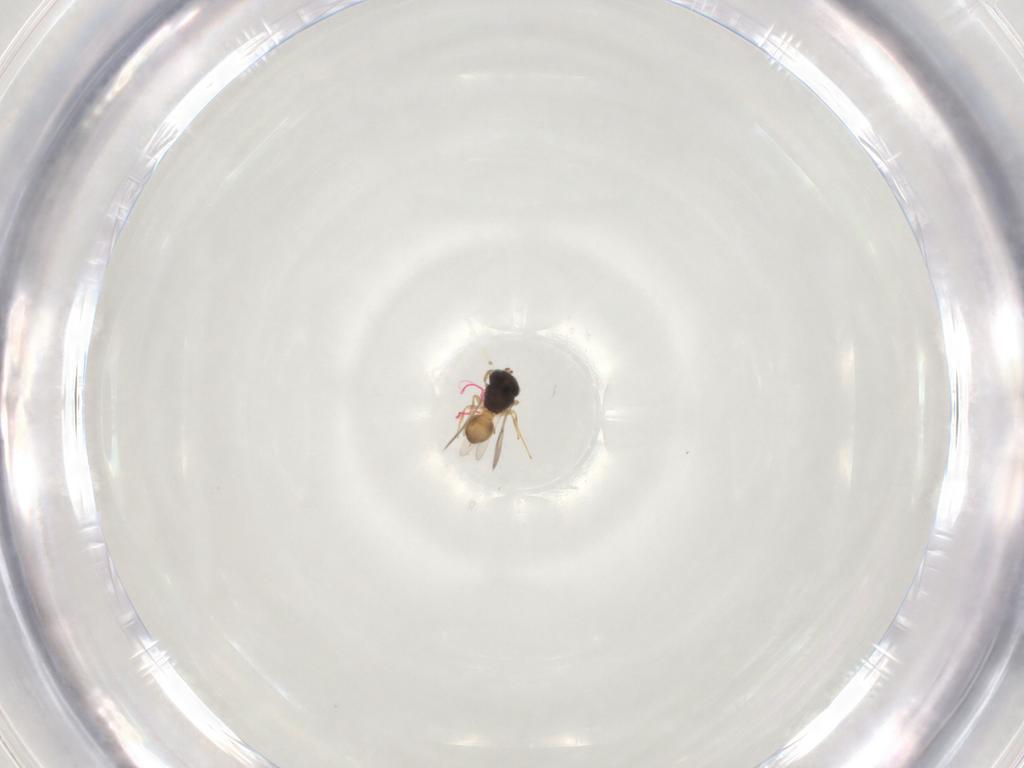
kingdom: Animalia
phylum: Arthropoda
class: Insecta
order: Hymenoptera
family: Scelionidae
